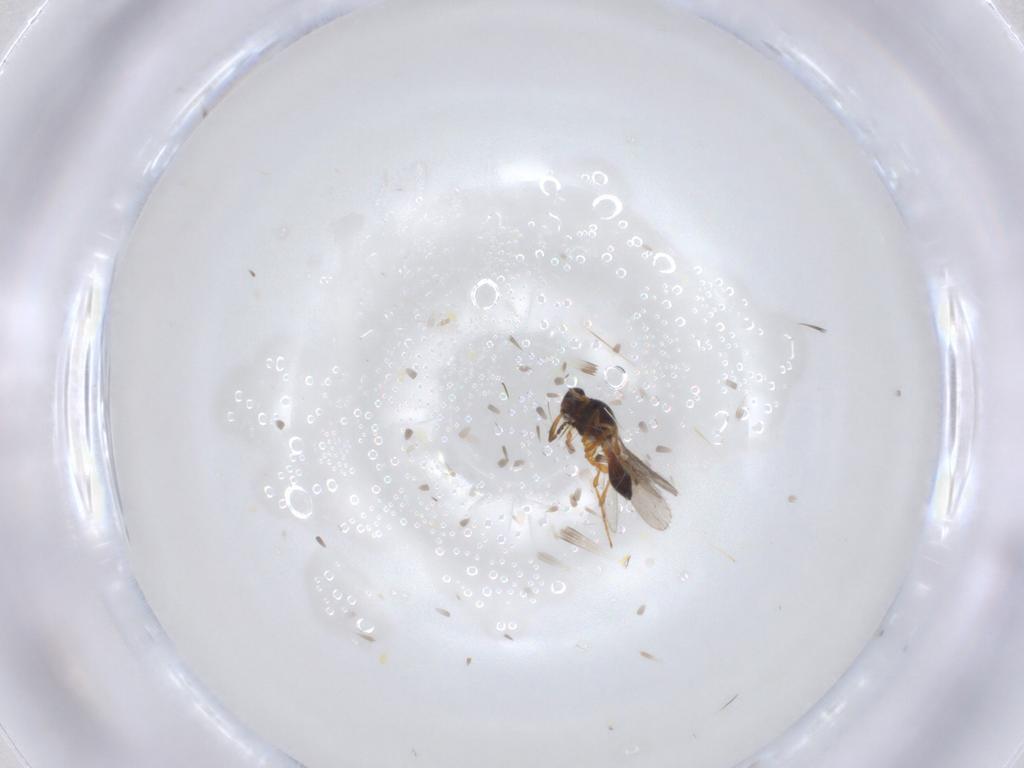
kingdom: Animalia
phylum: Arthropoda
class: Insecta
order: Hymenoptera
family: Platygastridae
